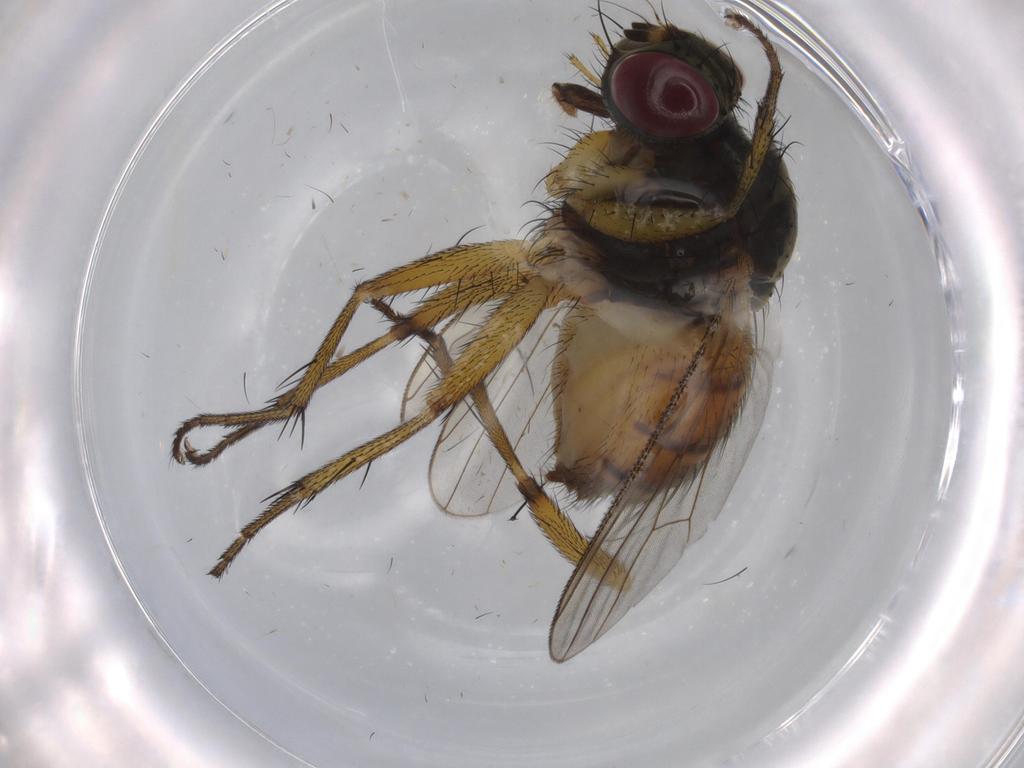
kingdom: Animalia
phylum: Arthropoda
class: Insecta
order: Diptera
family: Muscidae
